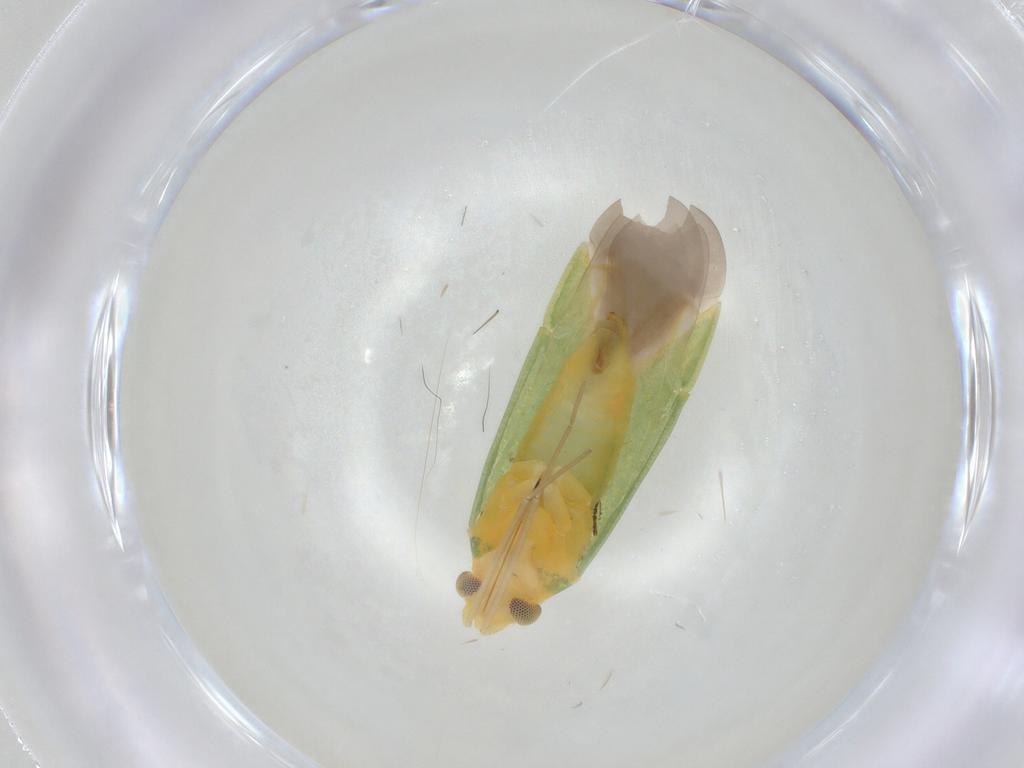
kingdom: Animalia
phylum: Arthropoda
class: Insecta
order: Hemiptera
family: Miridae
